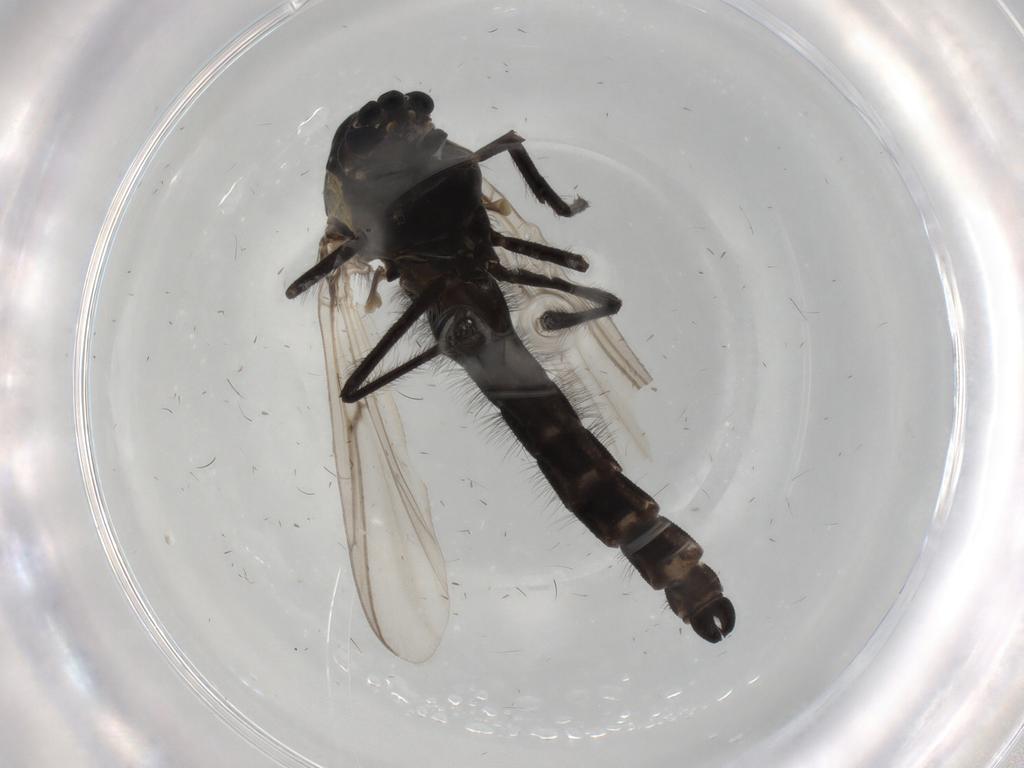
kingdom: Animalia
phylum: Arthropoda
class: Insecta
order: Diptera
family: Chironomidae
